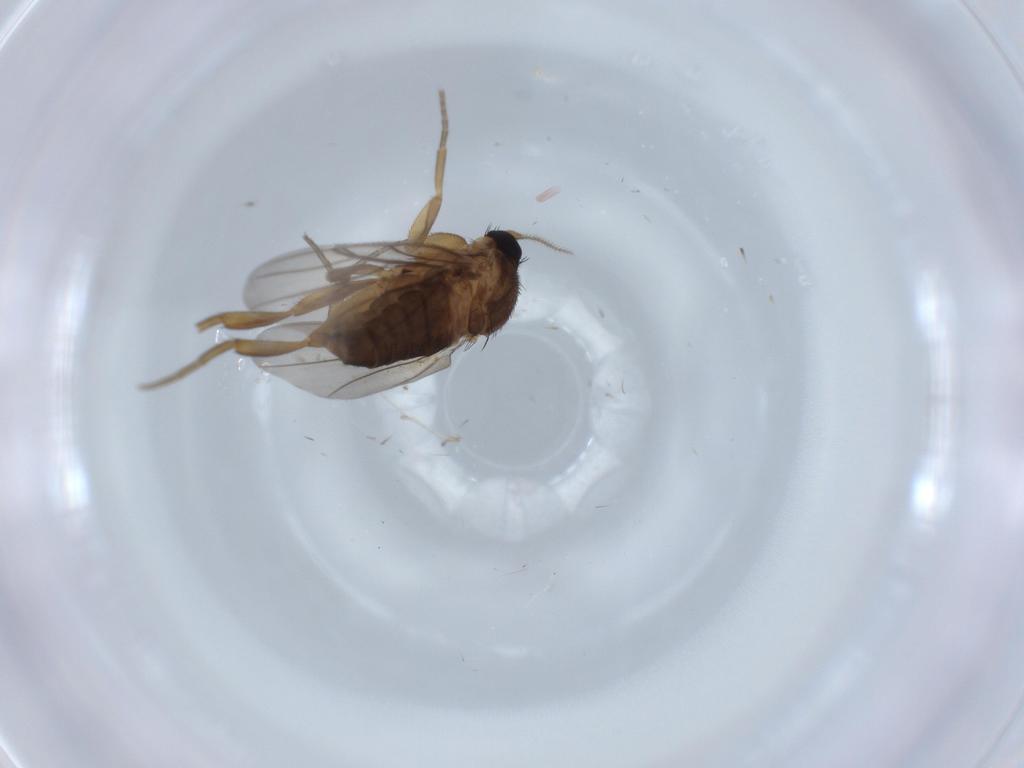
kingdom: Animalia
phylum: Arthropoda
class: Insecta
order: Diptera
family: Cecidomyiidae
